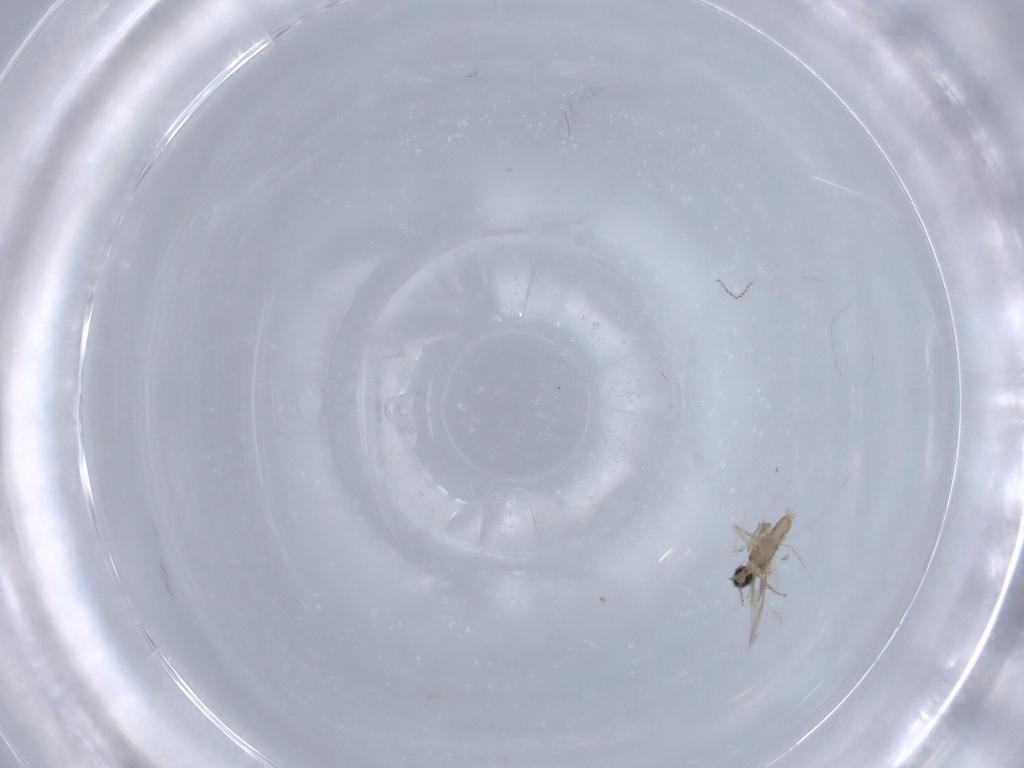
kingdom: Animalia
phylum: Arthropoda
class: Insecta
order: Diptera
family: Cecidomyiidae
